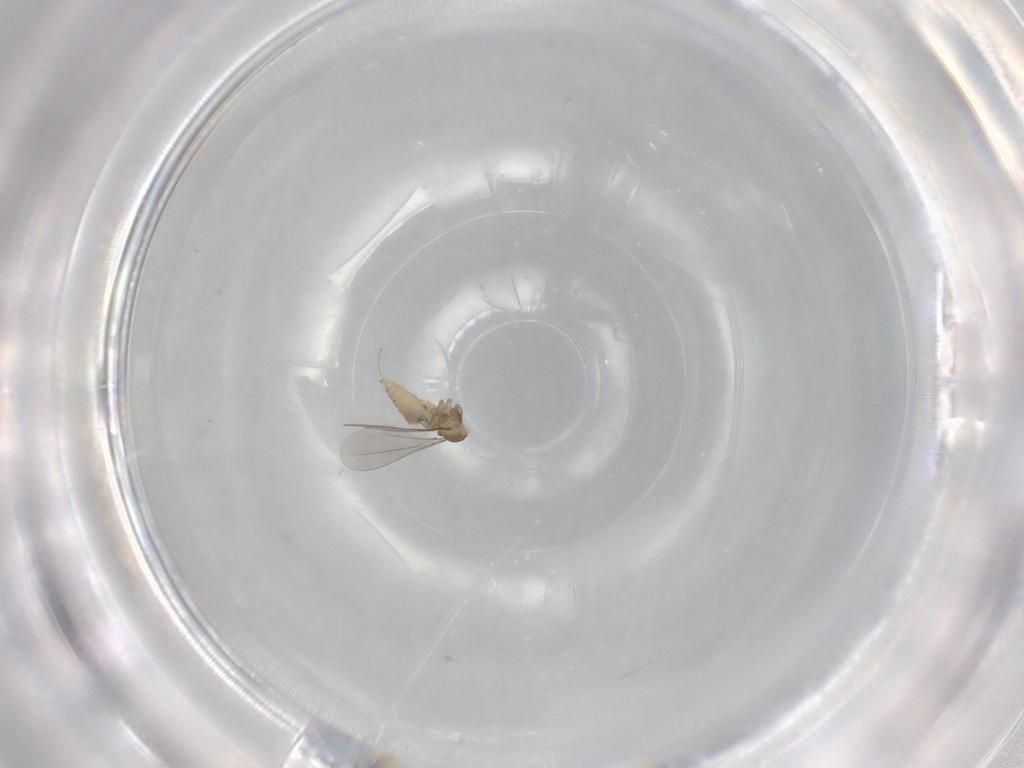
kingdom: Animalia
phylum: Arthropoda
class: Insecta
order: Diptera
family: Cecidomyiidae
